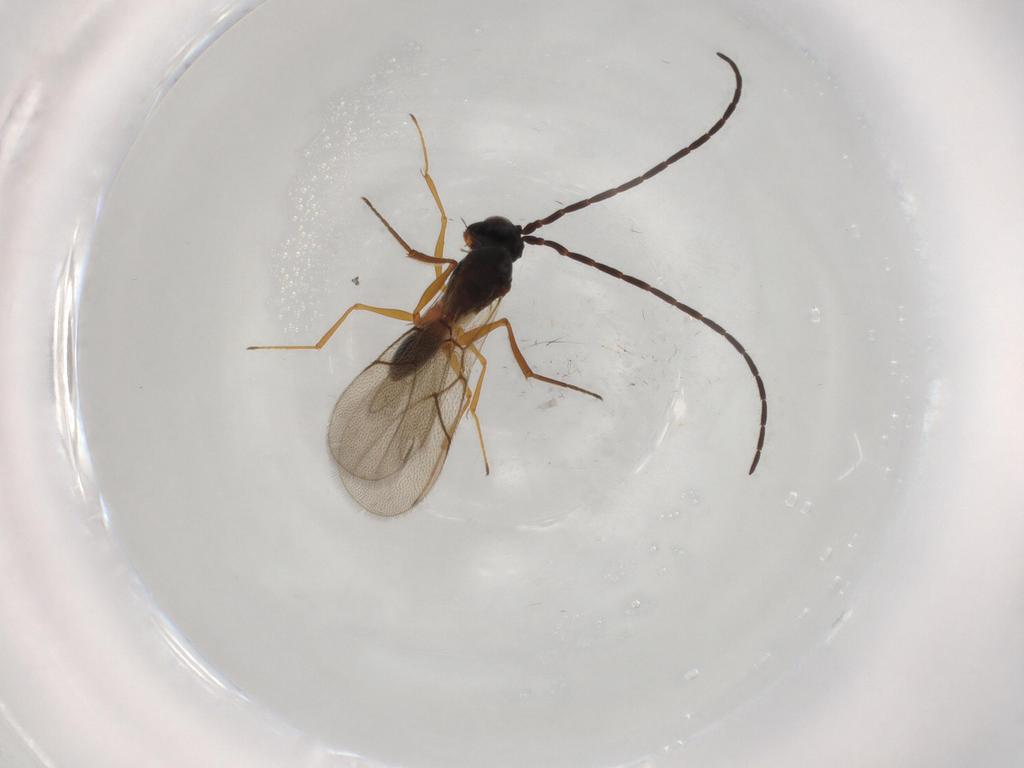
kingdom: Animalia
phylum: Arthropoda
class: Insecta
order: Hymenoptera
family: Figitidae
